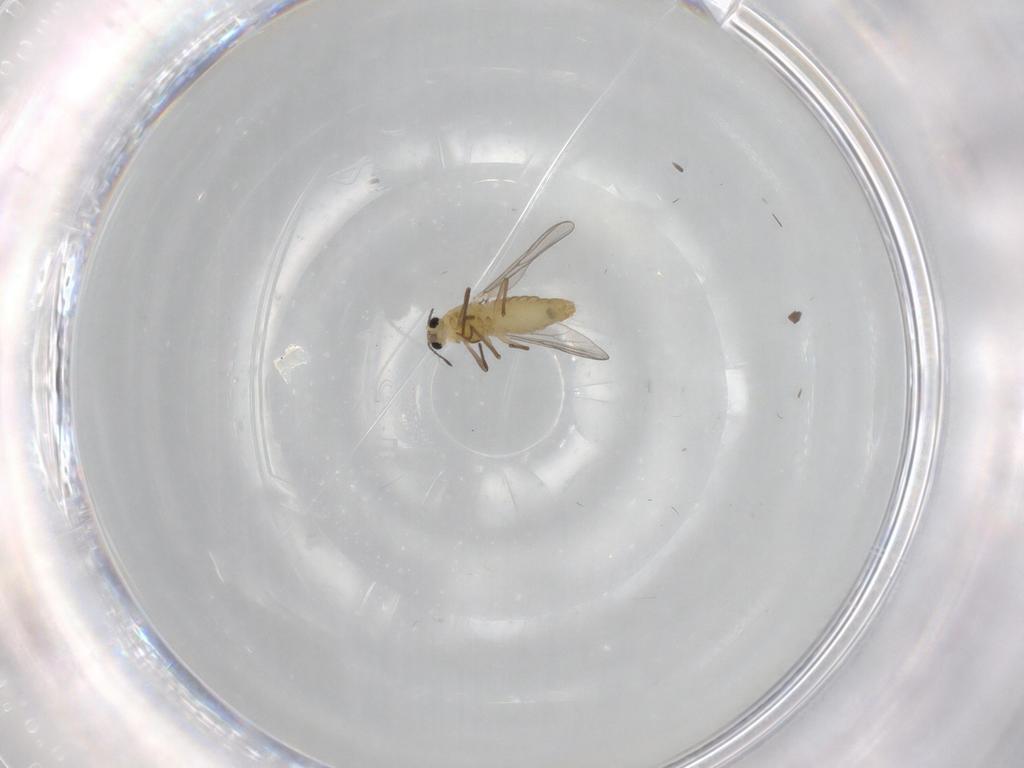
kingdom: Animalia
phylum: Arthropoda
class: Insecta
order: Diptera
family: Chironomidae
